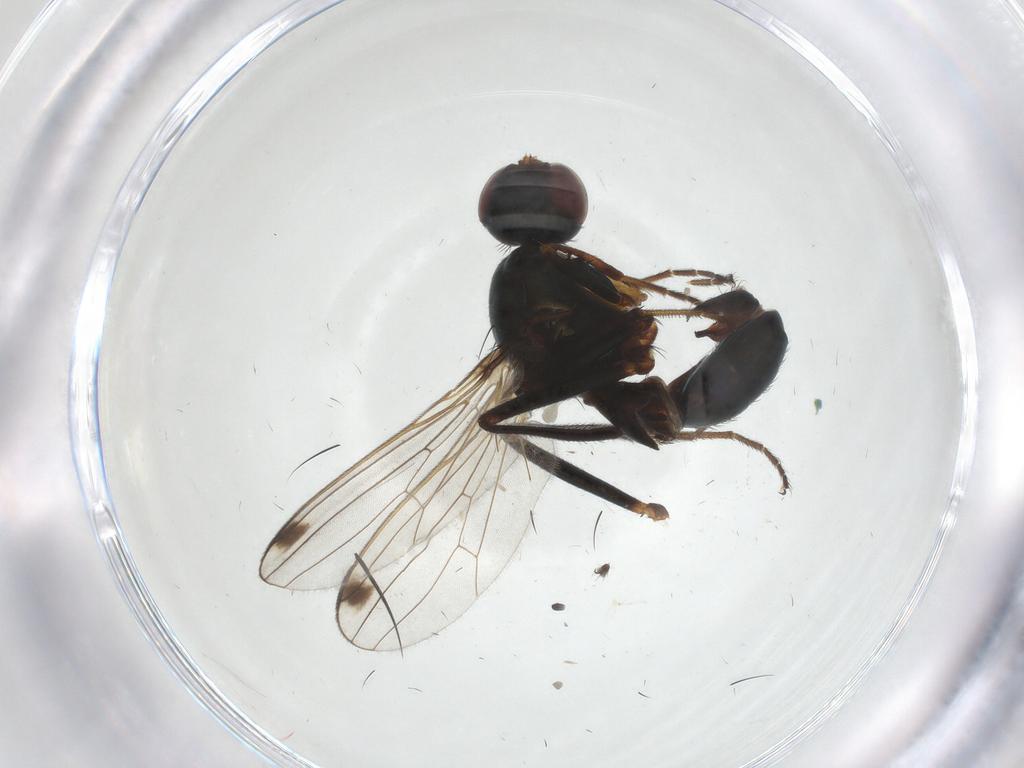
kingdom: Animalia
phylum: Arthropoda
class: Insecta
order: Diptera
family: Sepsidae
